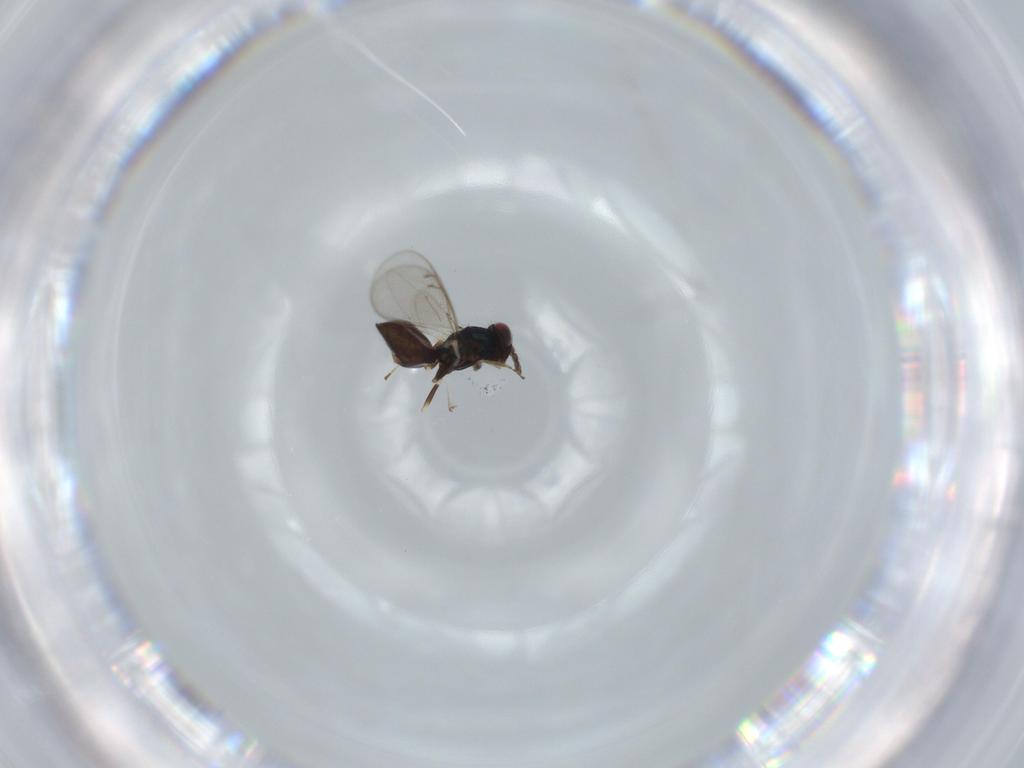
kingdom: Animalia
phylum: Arthropoda
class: Insecta
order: Hymenoptera
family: Eulophidae
